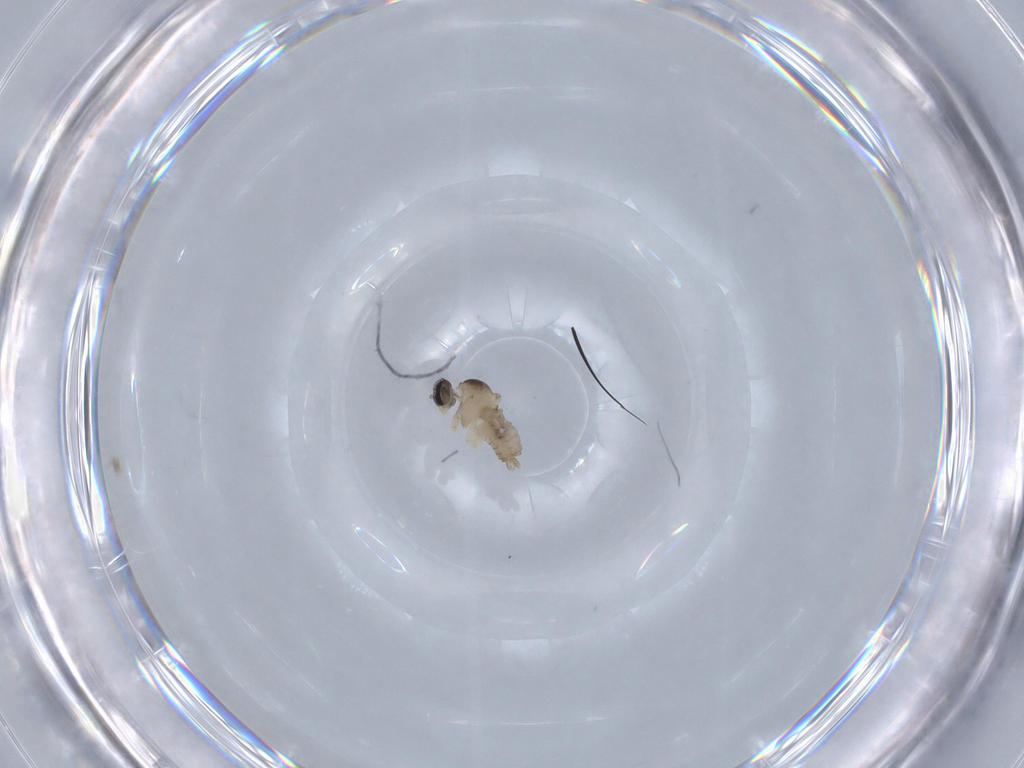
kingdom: Animalia
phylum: Arthropoda
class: Insecta
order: Diptera
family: Cecidomyiidae
